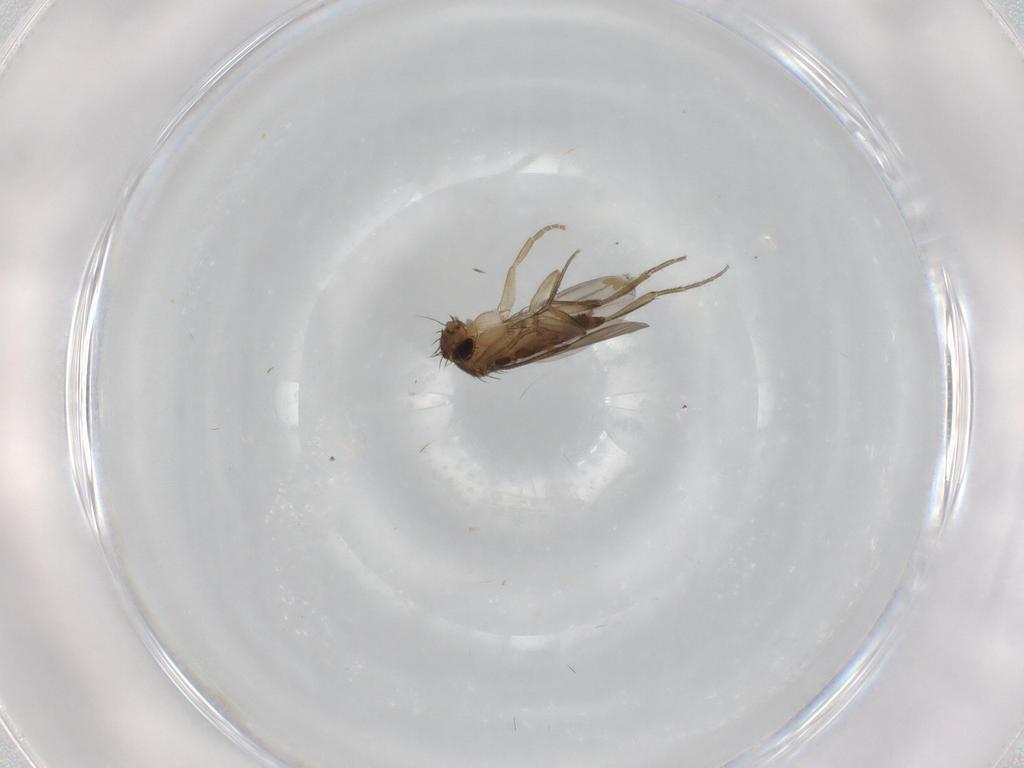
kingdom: Animalia
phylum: Arthropoda
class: Insecta
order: Diptera
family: Phoridae
